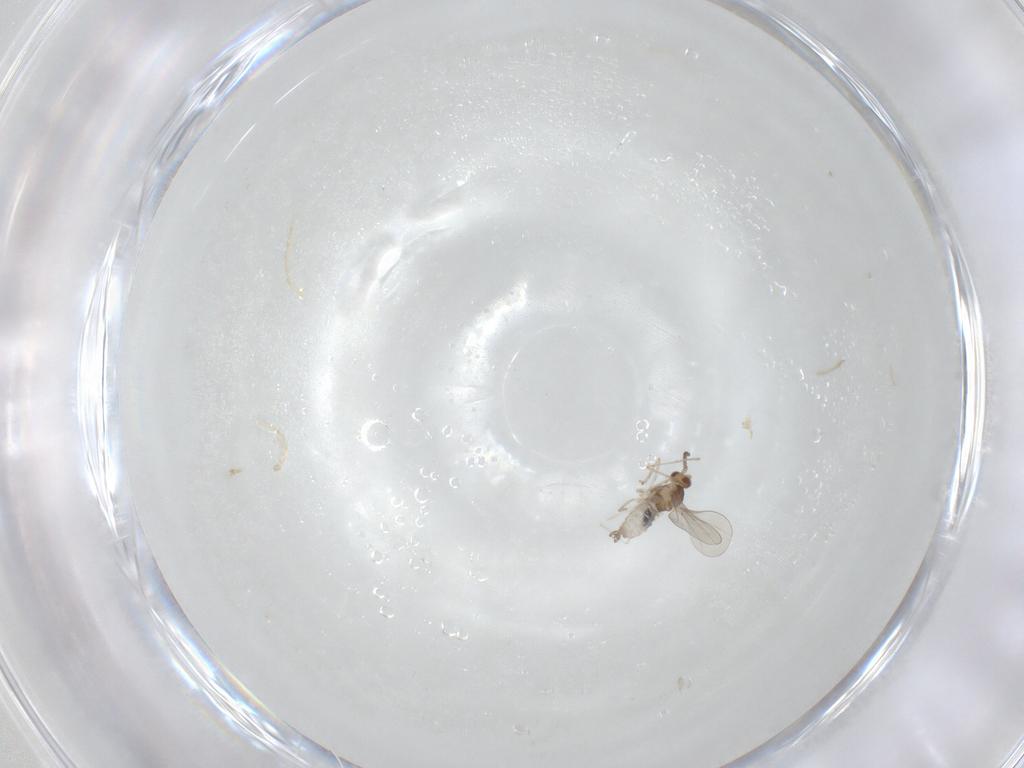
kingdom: Animalia
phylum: Arthropoda
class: Insecta
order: Diptera
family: Cecidomyiidae
